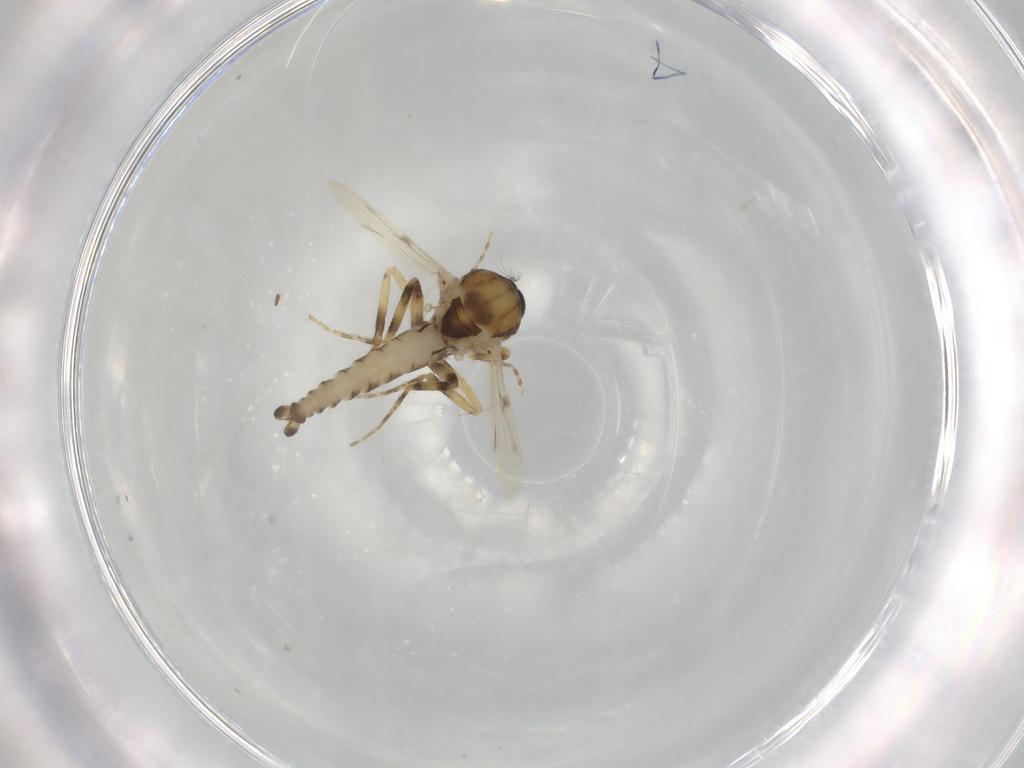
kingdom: Animalia
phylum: Arthropoda
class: Insecta
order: Diptera
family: Ceratopogonidae
